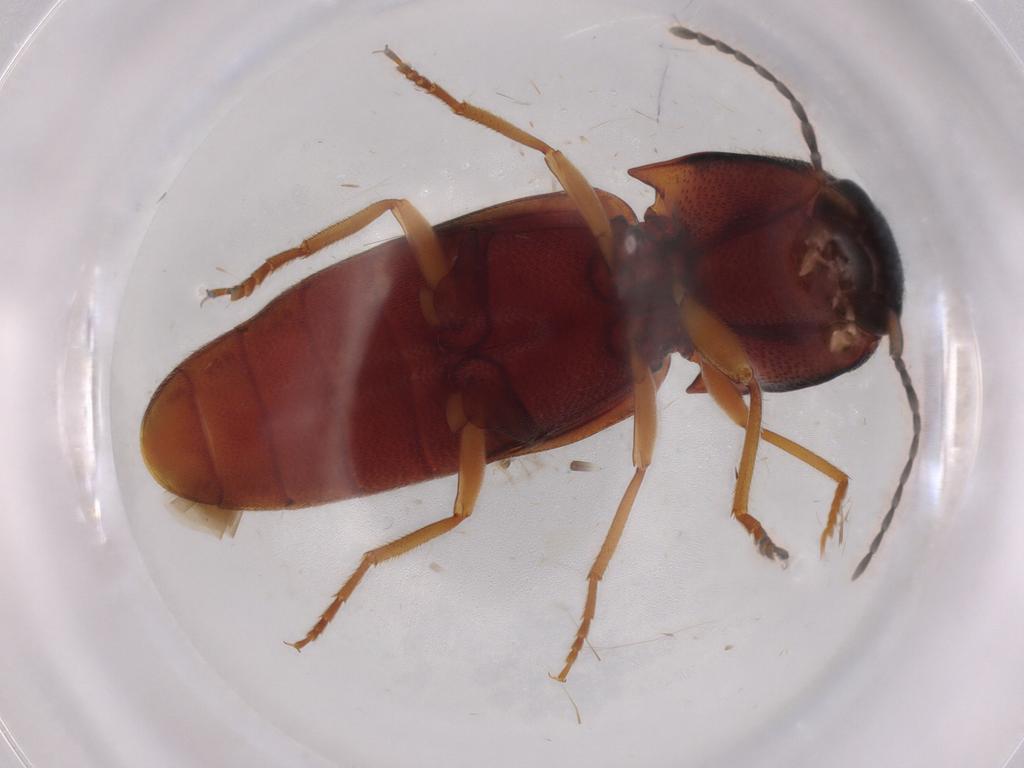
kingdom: Animalia
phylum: Arthropoda
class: Insecta
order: Coleoptera
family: Elateridae
